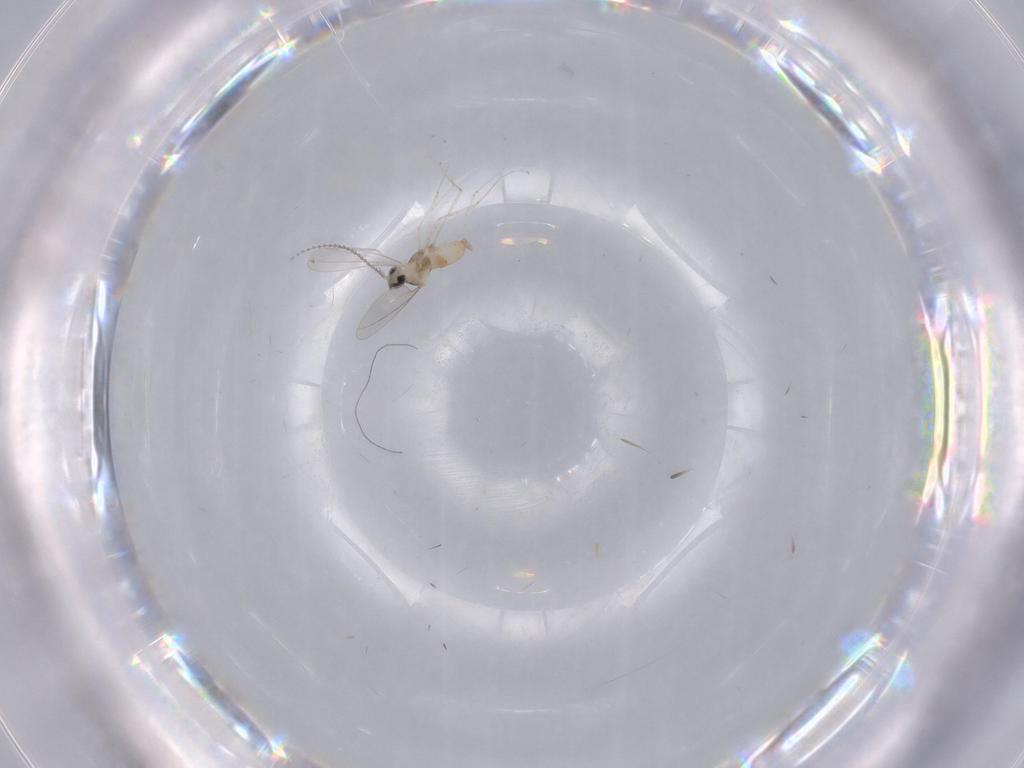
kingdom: Animalia
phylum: Arthropoda
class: Insecta
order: Diptera
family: Cecidomyiidae
